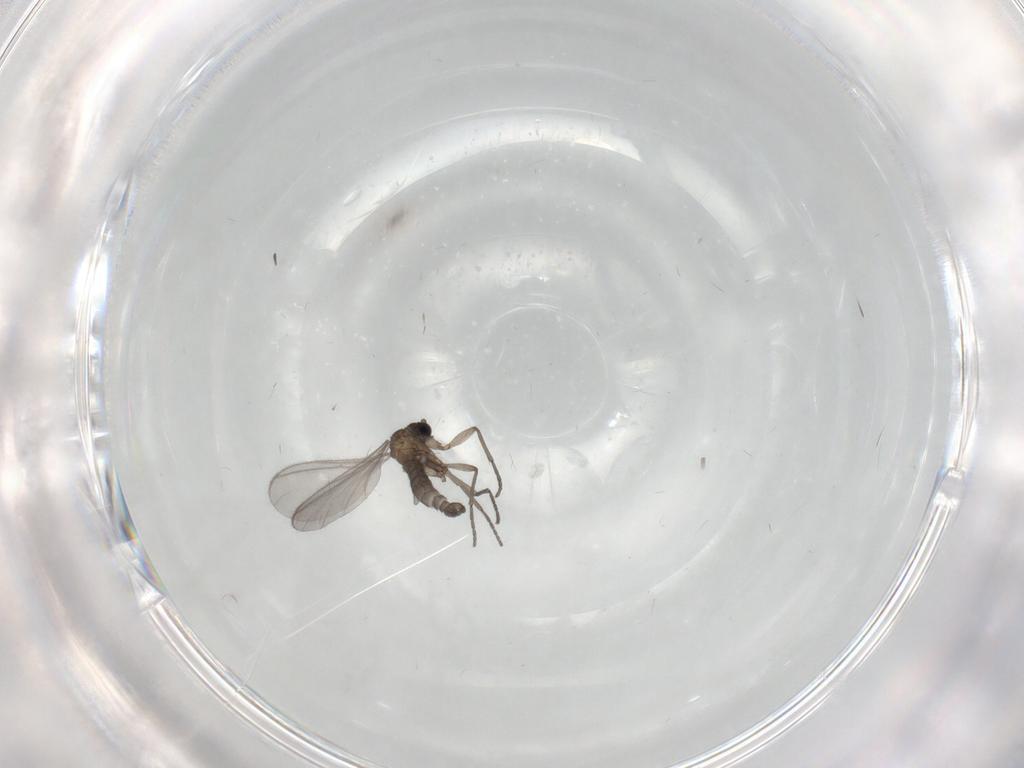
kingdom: Animalia
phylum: Arthropoda
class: Insecta
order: Diptera
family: Sciaridae
